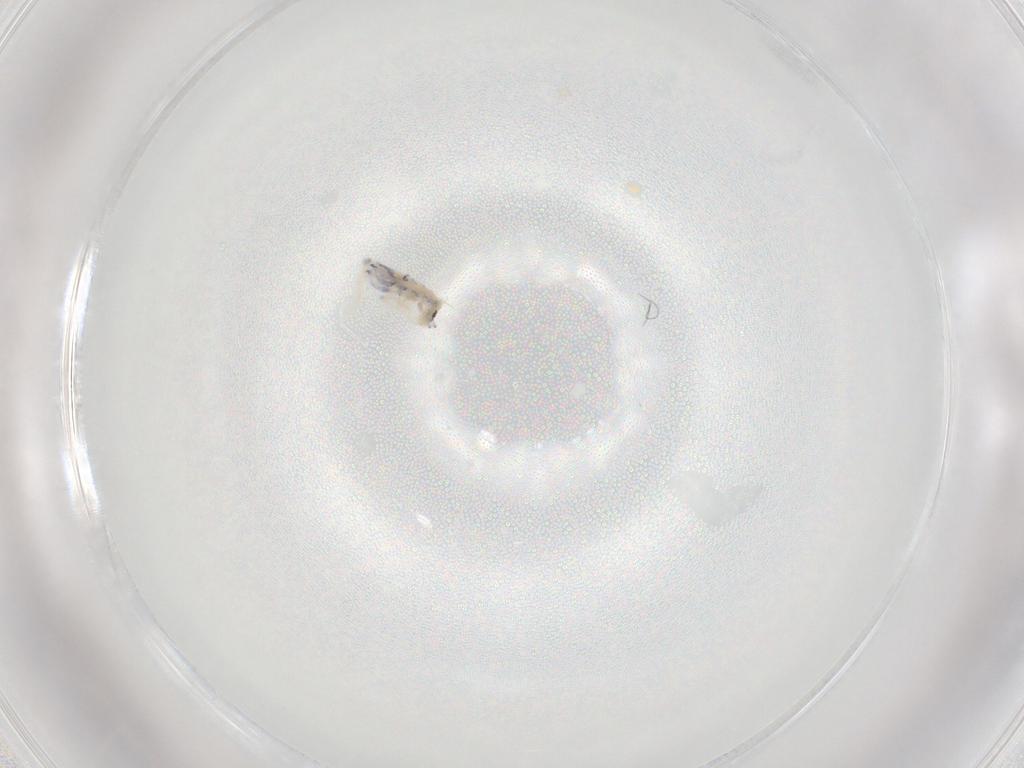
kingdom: Animalia
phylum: Arthropoda
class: Collembola
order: Entomobryomorpha
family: Entomobryidae
